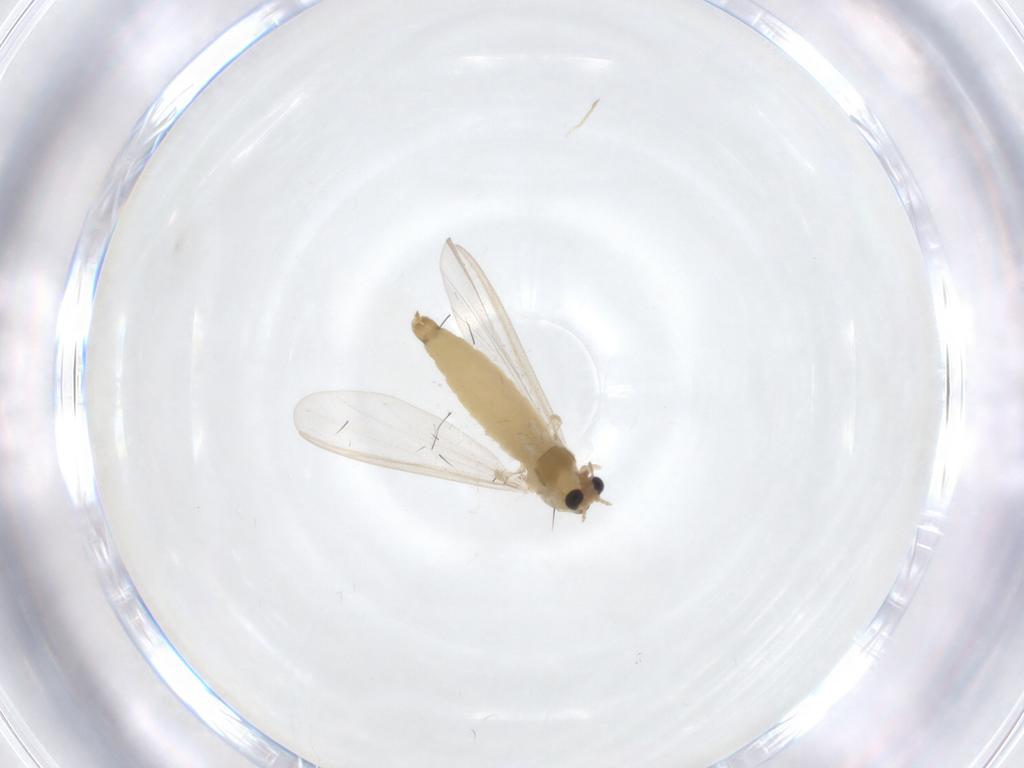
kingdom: Animalia
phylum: Arthropoda
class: Insecta
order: Diptera
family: Chironomidae
